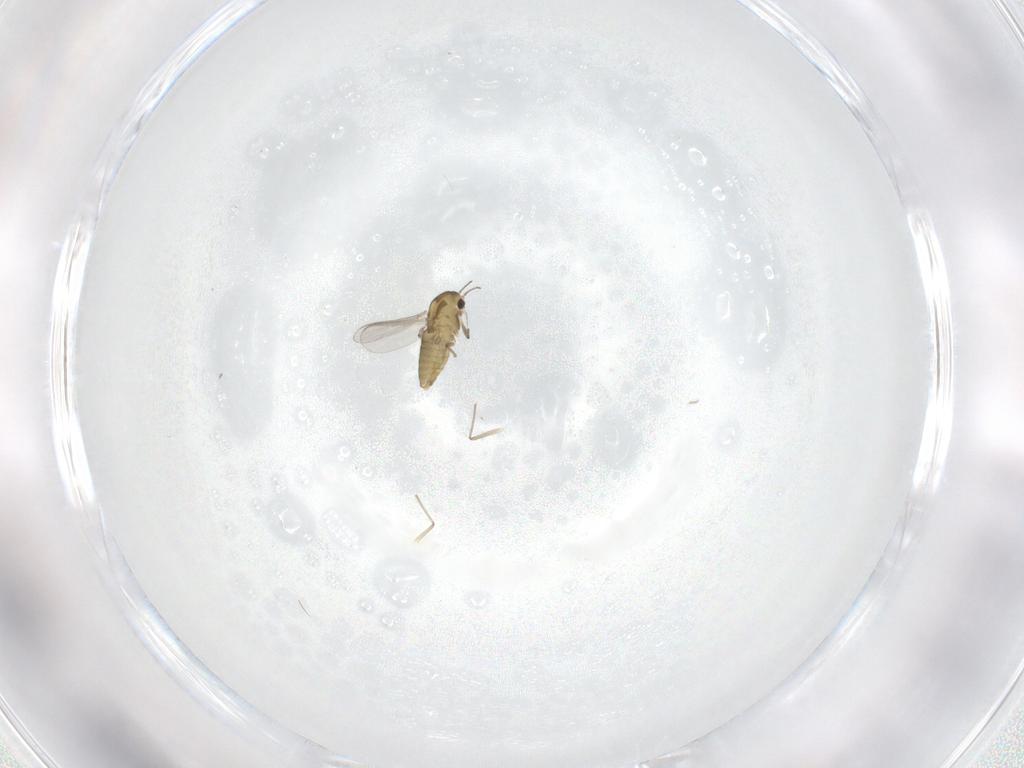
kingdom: Animalia
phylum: Arthropoda
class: Insecta
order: Diptera
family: Chironomidae
